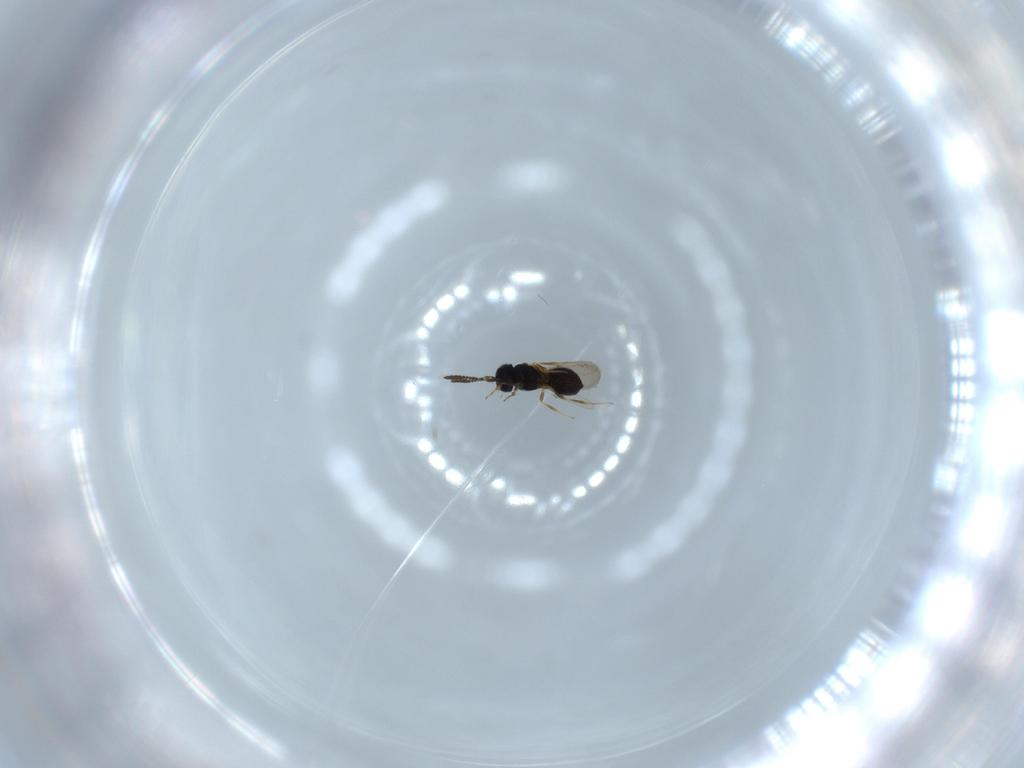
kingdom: Animalia
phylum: Arthropoda
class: Insecta
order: Hymenoptera
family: Scelionidae
